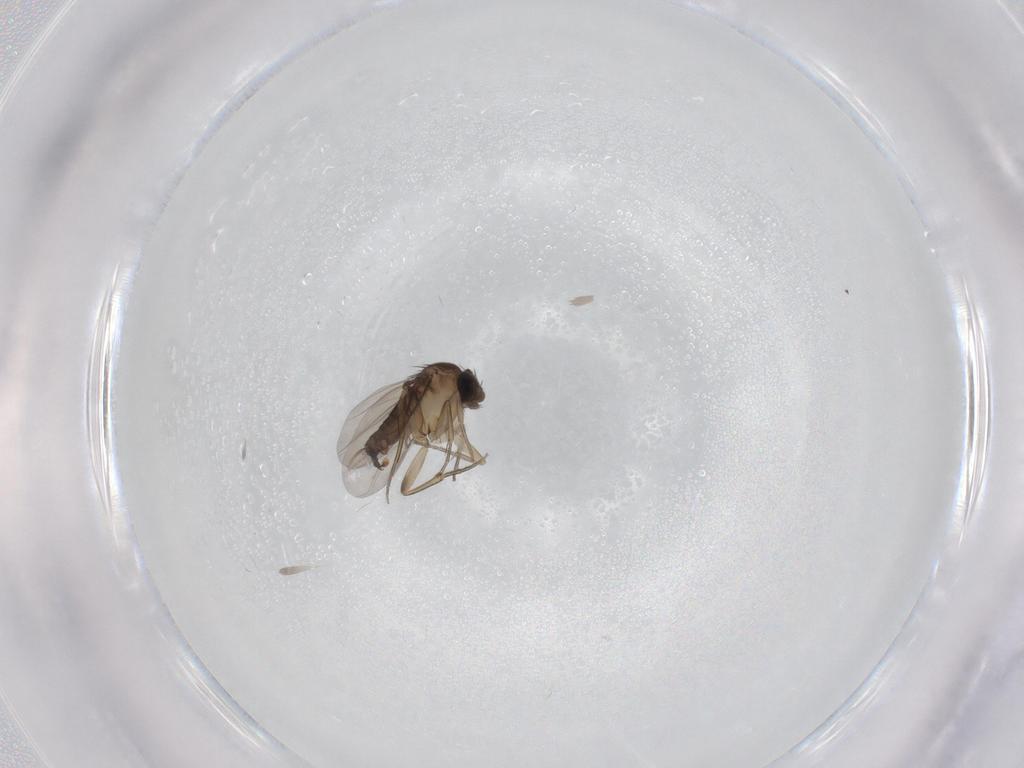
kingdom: Animalia
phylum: Arthropoda
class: Insecta
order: Diptera
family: Phoridae
